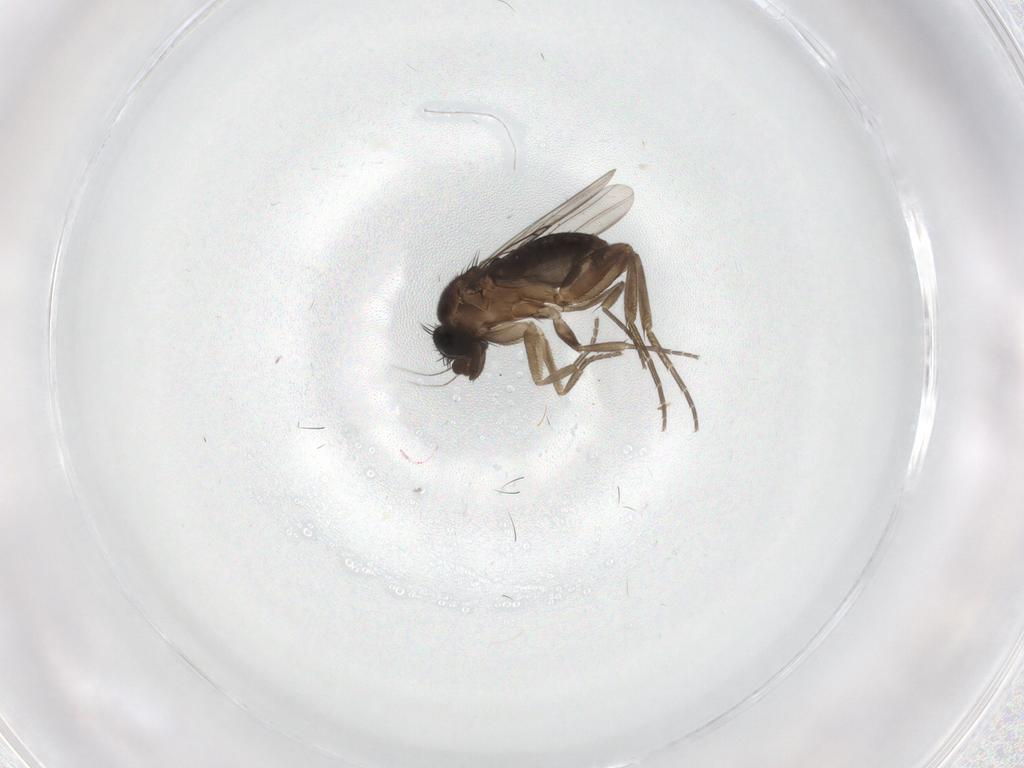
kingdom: Animalia
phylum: Arthropoda
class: Insecta
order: Diptera
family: Phoridae
